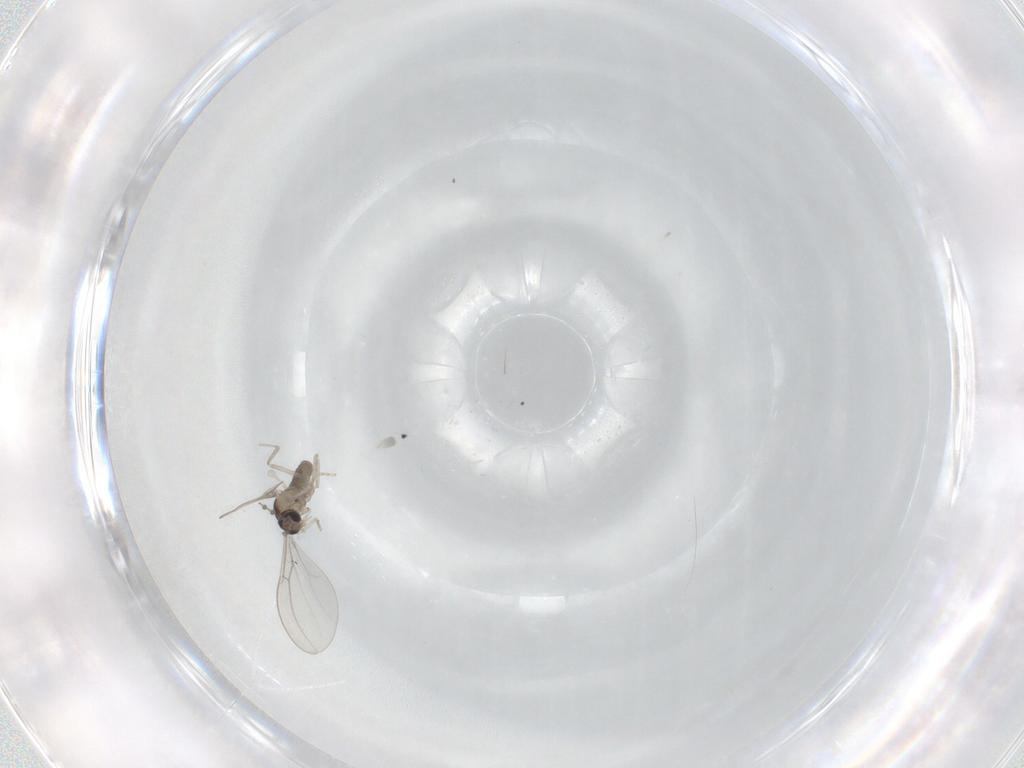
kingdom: Animalia
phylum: Arthropoda
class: Insecta
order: Diptera
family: Cecidomyiidae
